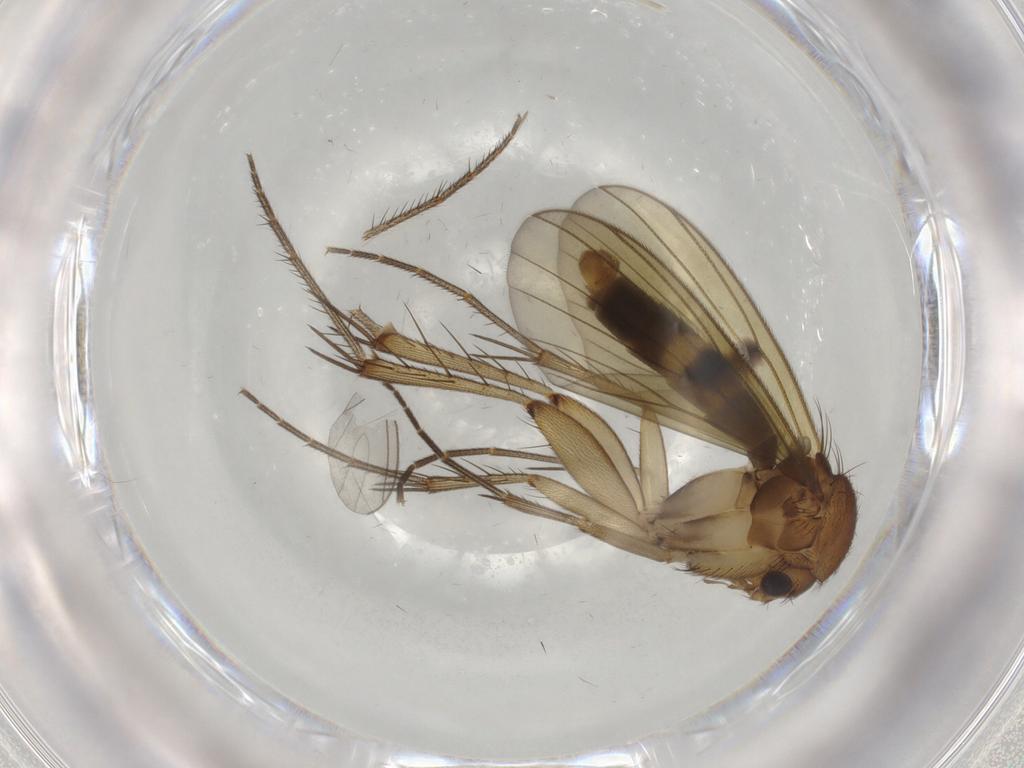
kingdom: Animalia
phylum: Arthropoda
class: Insecta
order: Diptera
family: Mycetophilidae
